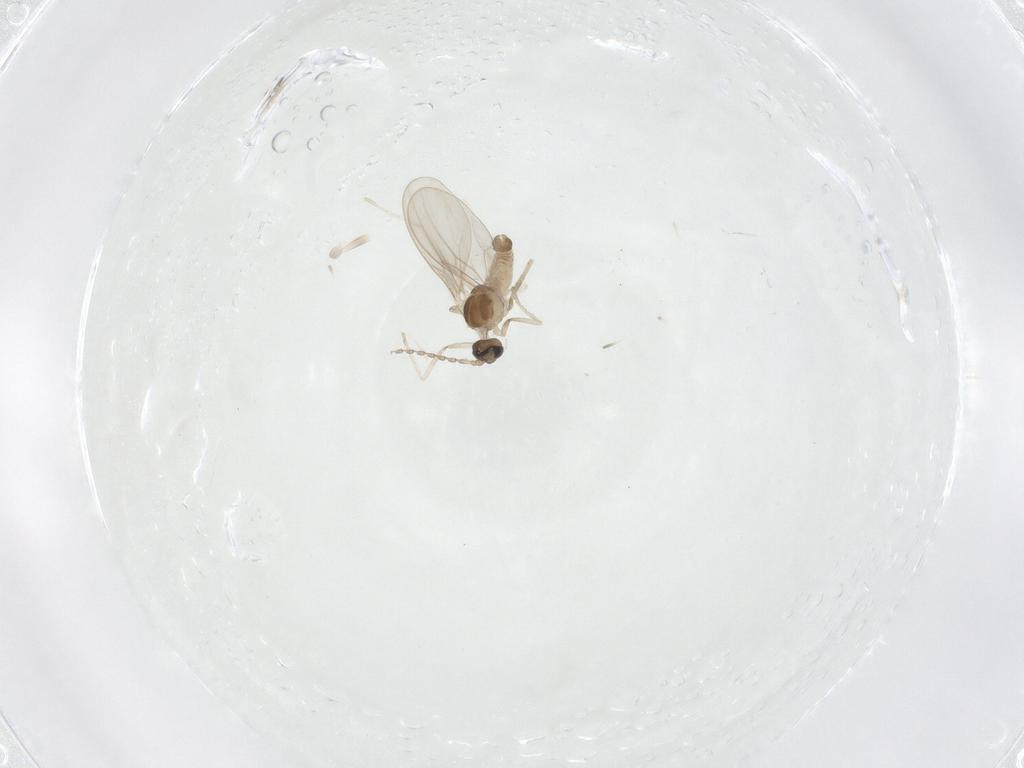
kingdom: Animalia
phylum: Arthropoda
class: Insecta
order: Diptera
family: Cecidomyiidae
